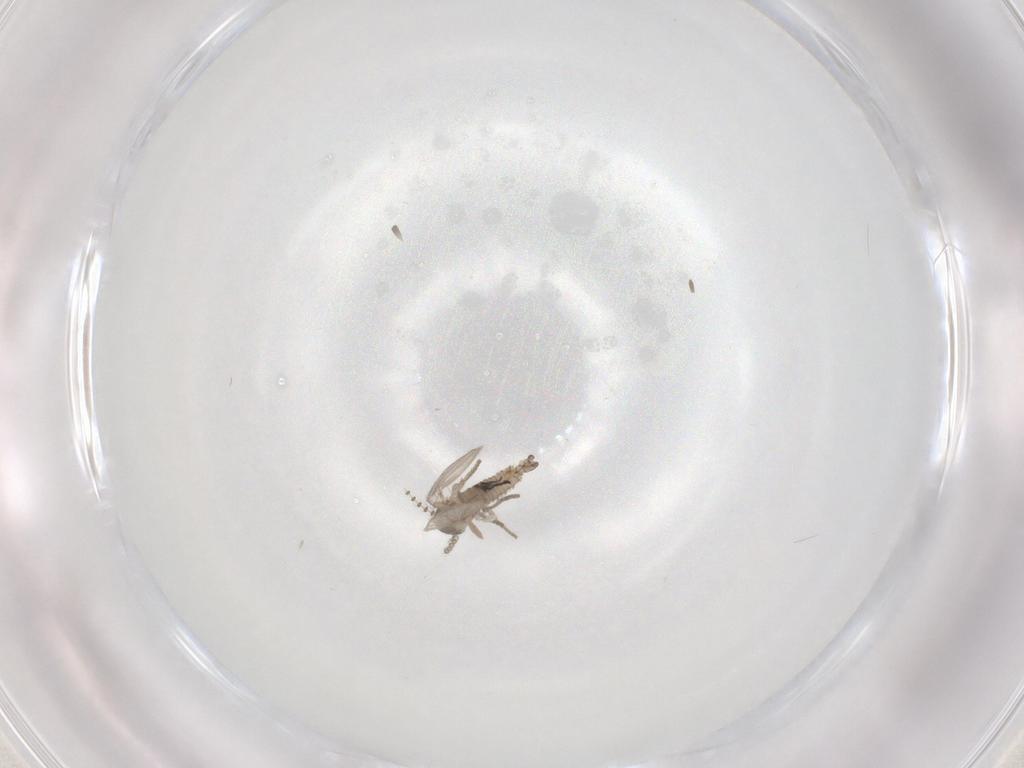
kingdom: Animalia
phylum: Arthropoda
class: Insecta
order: Diptera
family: Psychodidae
